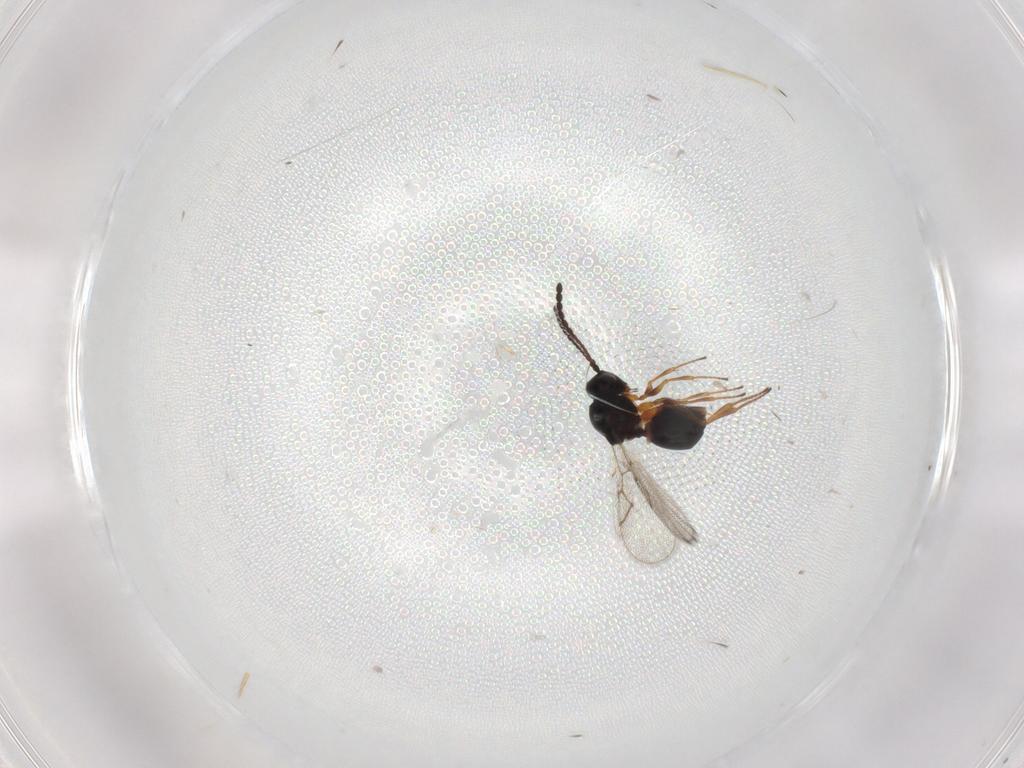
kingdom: Animalia
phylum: Arthropoda
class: Insecta
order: Hymenoptera
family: Figitidae
